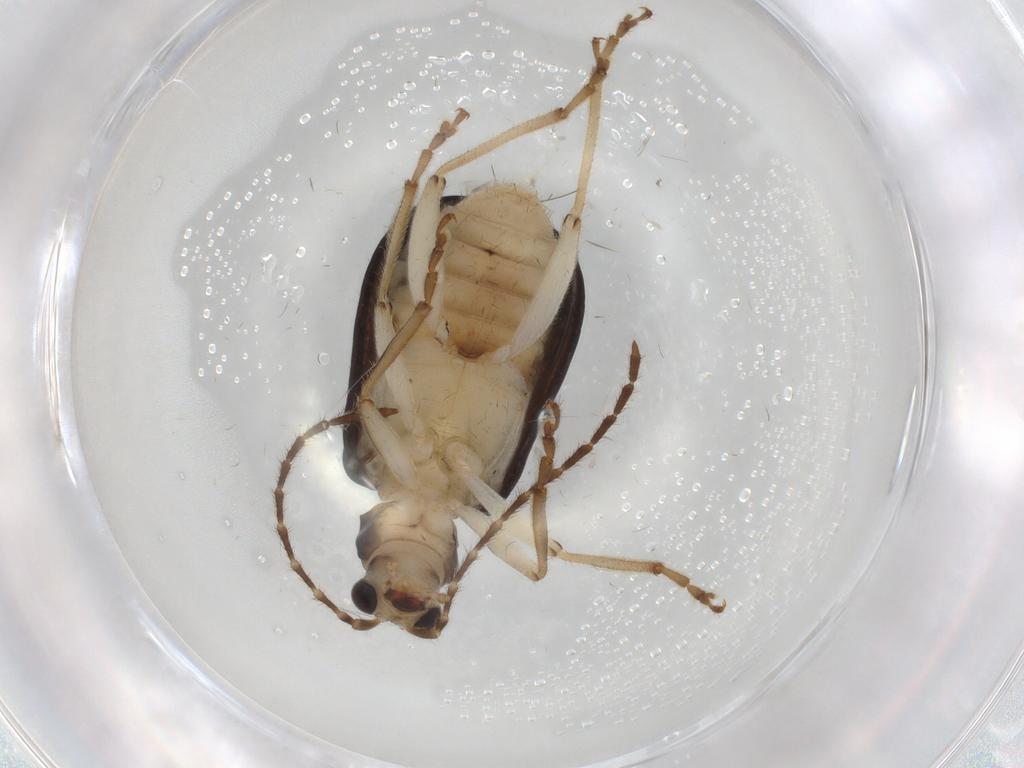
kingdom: Animalia
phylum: Arthropoda
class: Insecta
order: Coleoptera
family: Chrysomelidae
